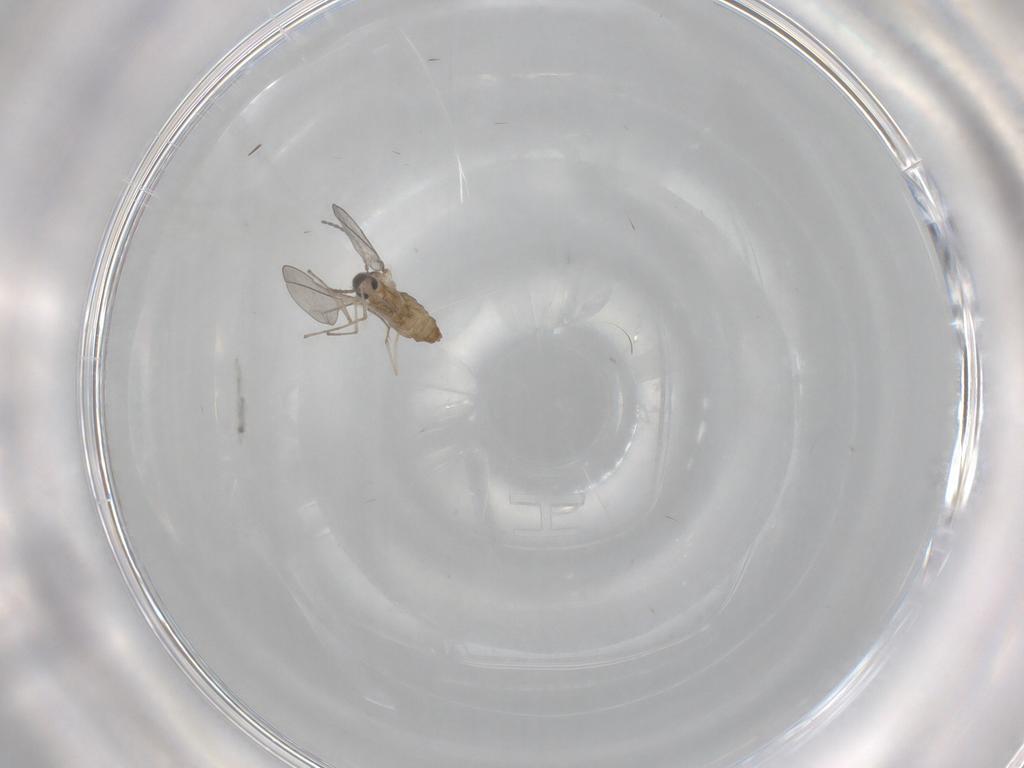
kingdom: Animalia
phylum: Arthropoda
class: Insecta
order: Diptera
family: Cecidomyiidae
